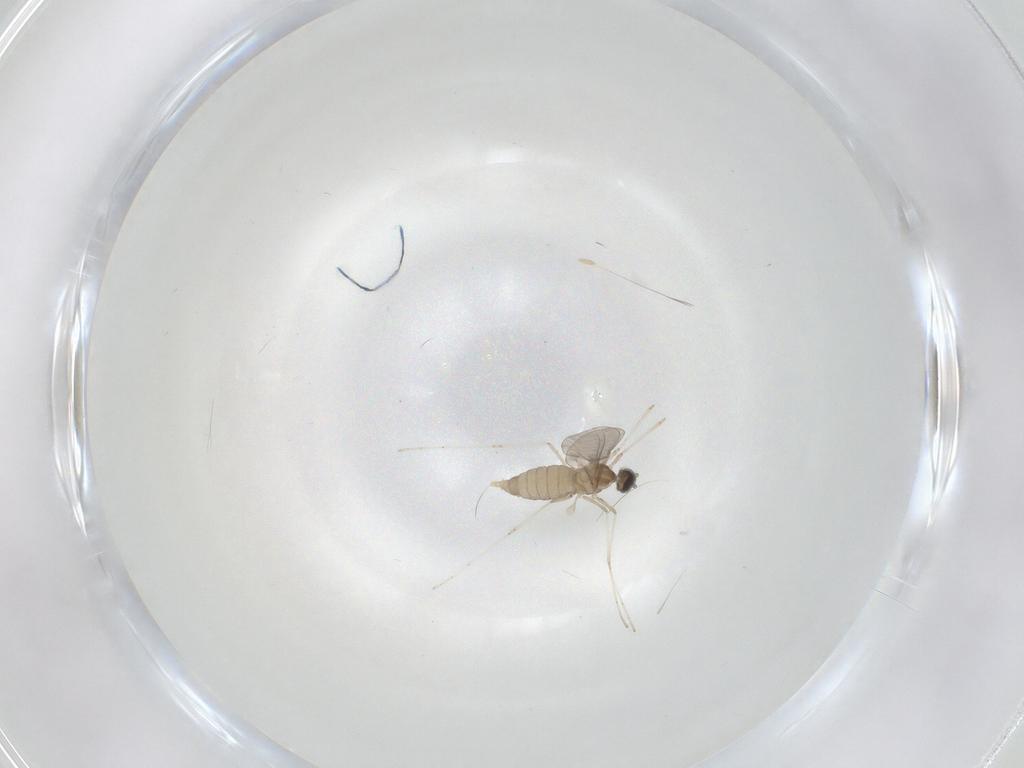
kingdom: Animalia
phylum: Arthropoda
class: Insecta
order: Diptera
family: Cecidomyiidae
